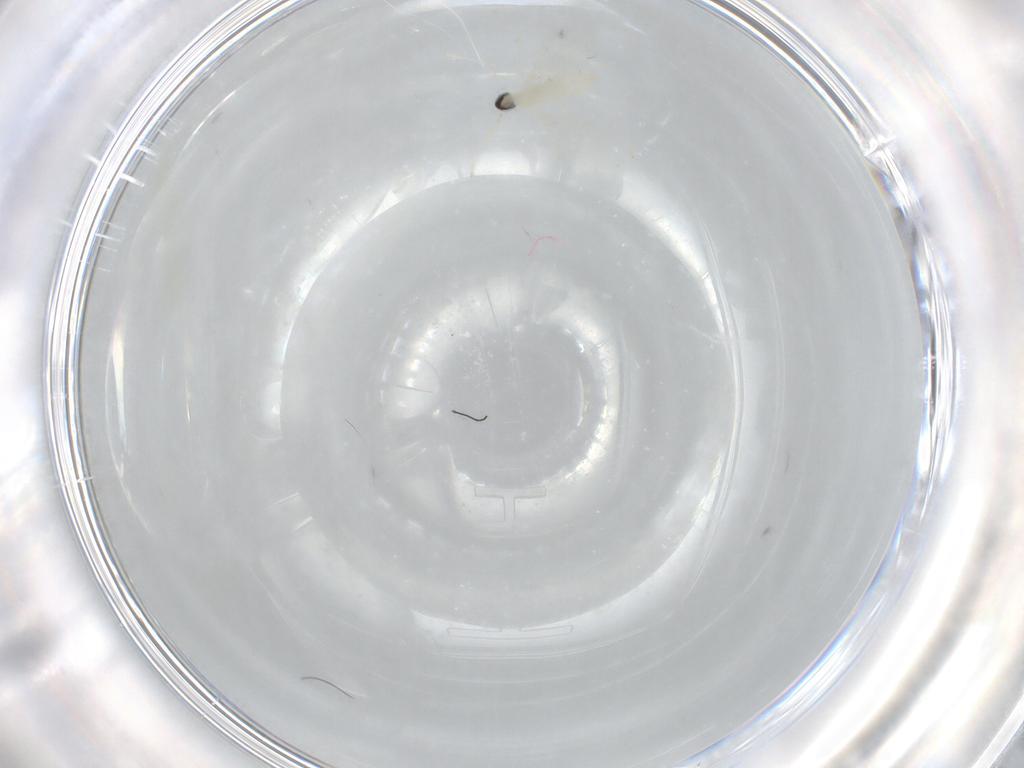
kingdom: Animalia
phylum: Arthropoda
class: Insecta
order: Diptera
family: Cecidomyiidae
